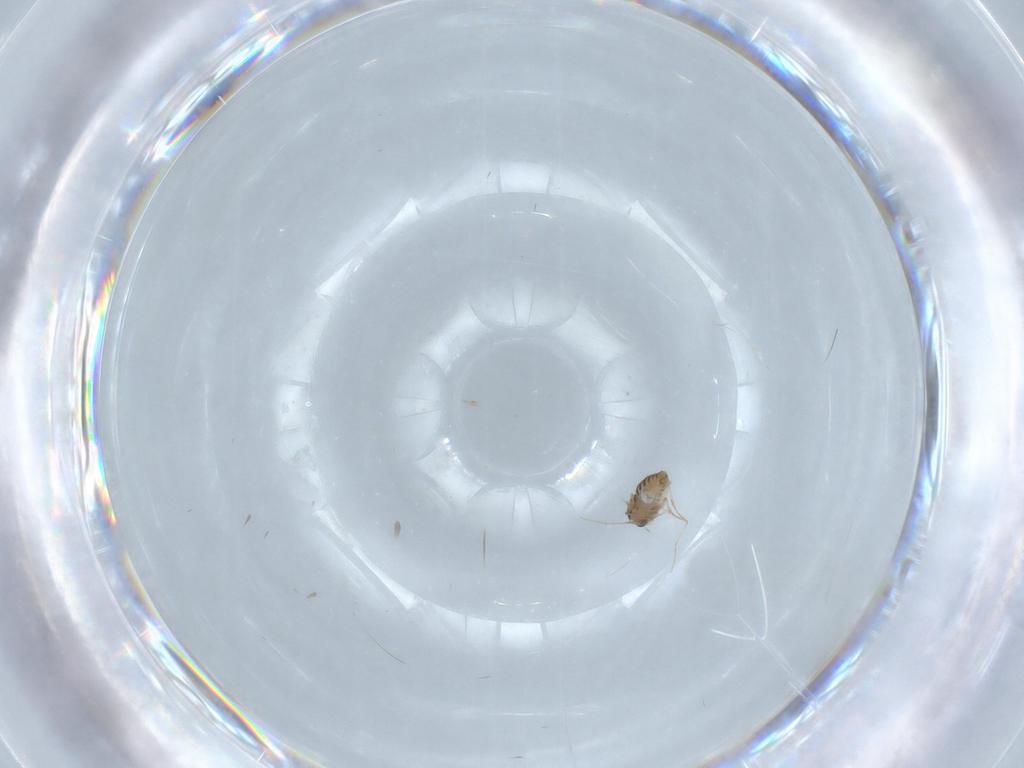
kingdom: Animalia
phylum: Arthropoda
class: Insecta
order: Diptera
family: Chironomidae
